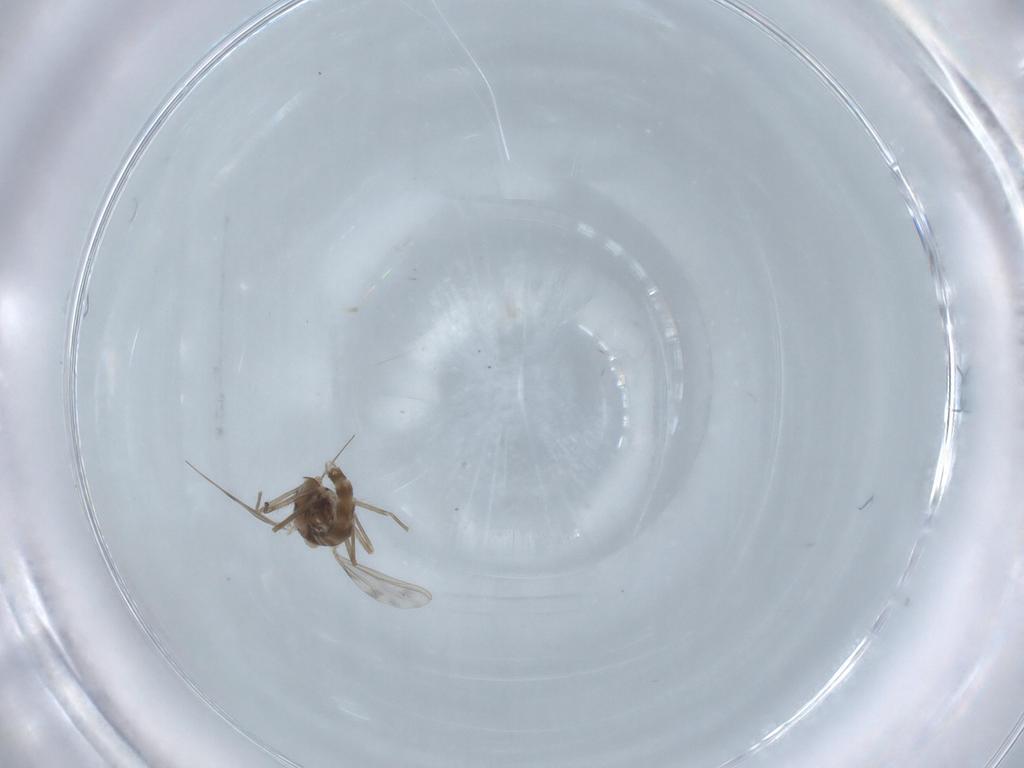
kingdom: Animalia
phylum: Arthropoda
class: Insecta
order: Diptera
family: Chironomidae
